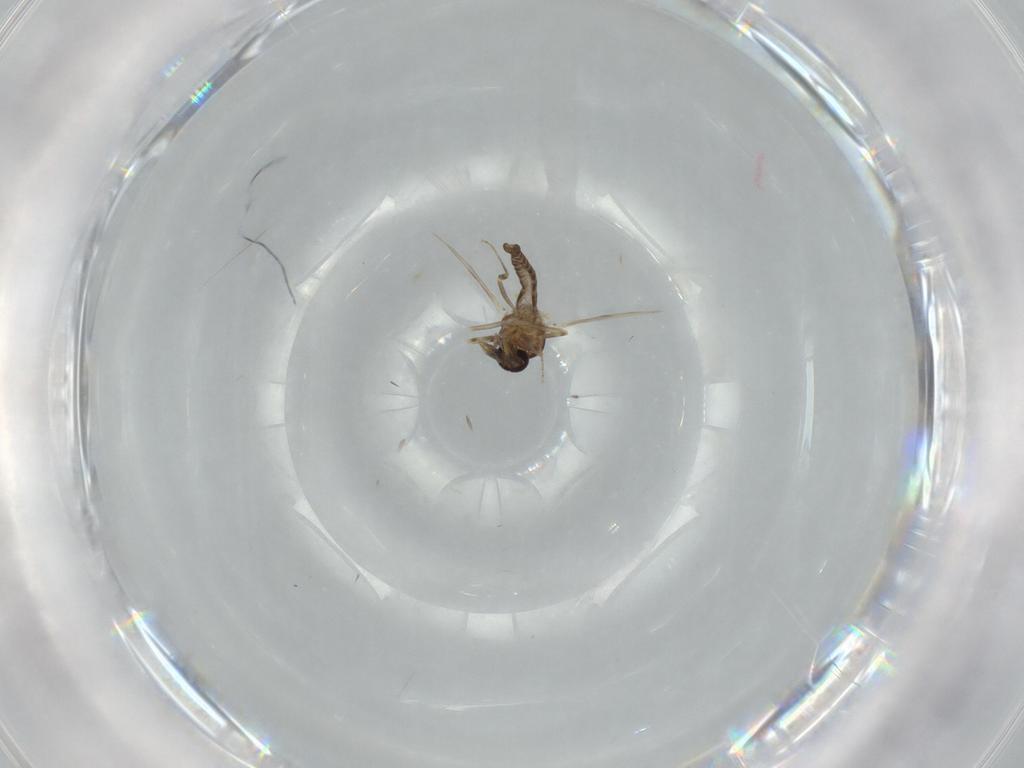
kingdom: Animalia
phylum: Arthropoda
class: Insecta
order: Diptera
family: Ceratopogonidae
